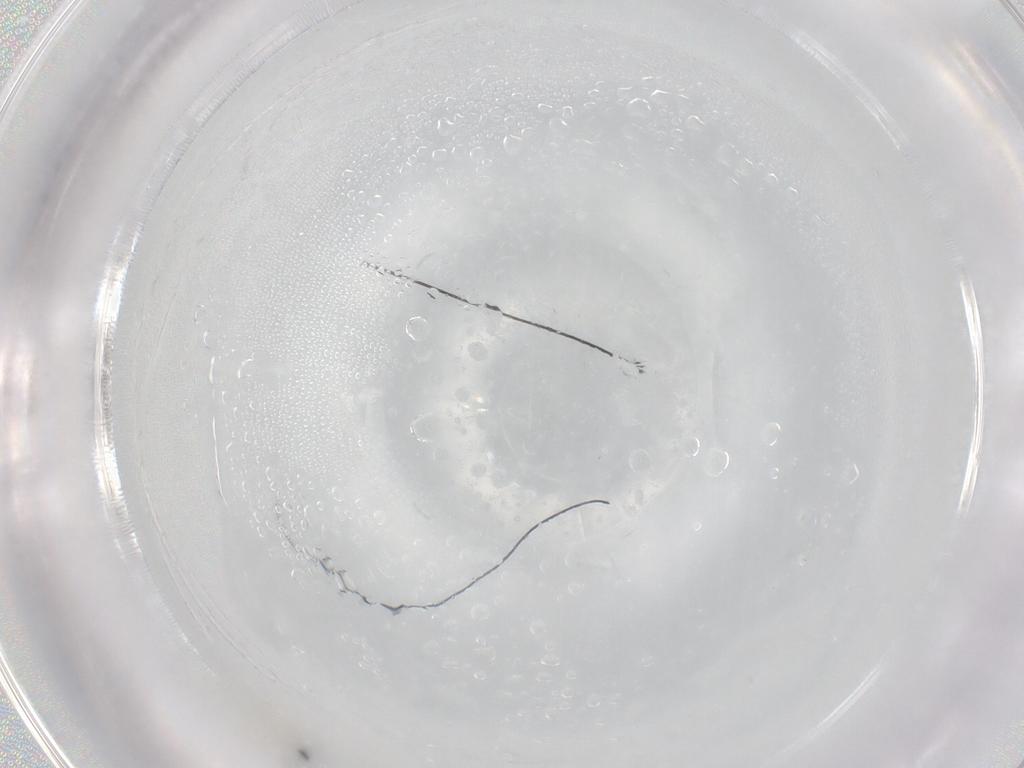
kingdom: Animalia
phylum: Arthropoda
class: Insecta
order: Diptera
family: Cecidomyiidae
